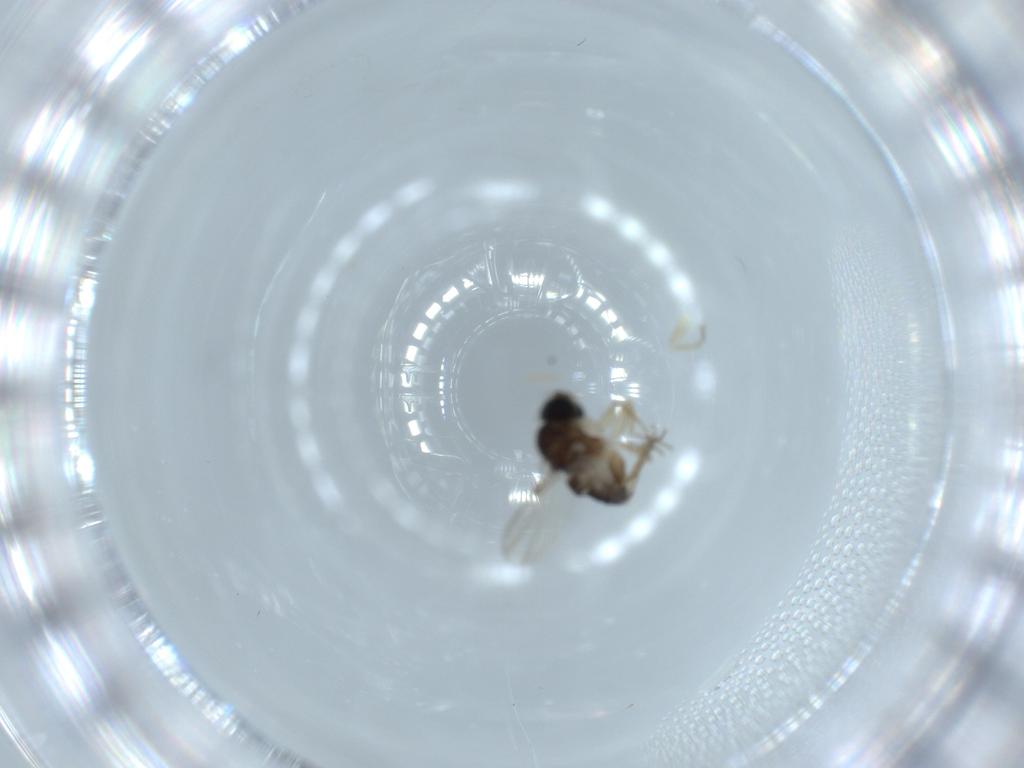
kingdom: Animalia
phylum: Arthropoda
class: Insecta
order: Diptera
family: Phoridae
